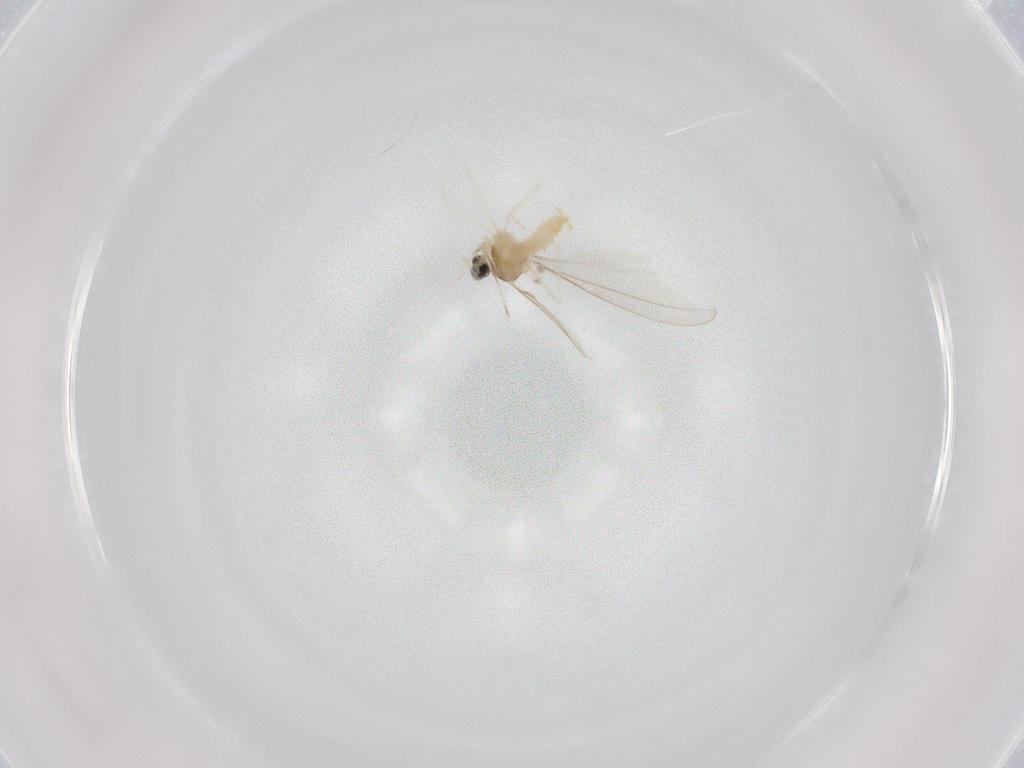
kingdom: Animalia
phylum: Arthropoda
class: Insecta
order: Diptera
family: Cecidomyiidae
